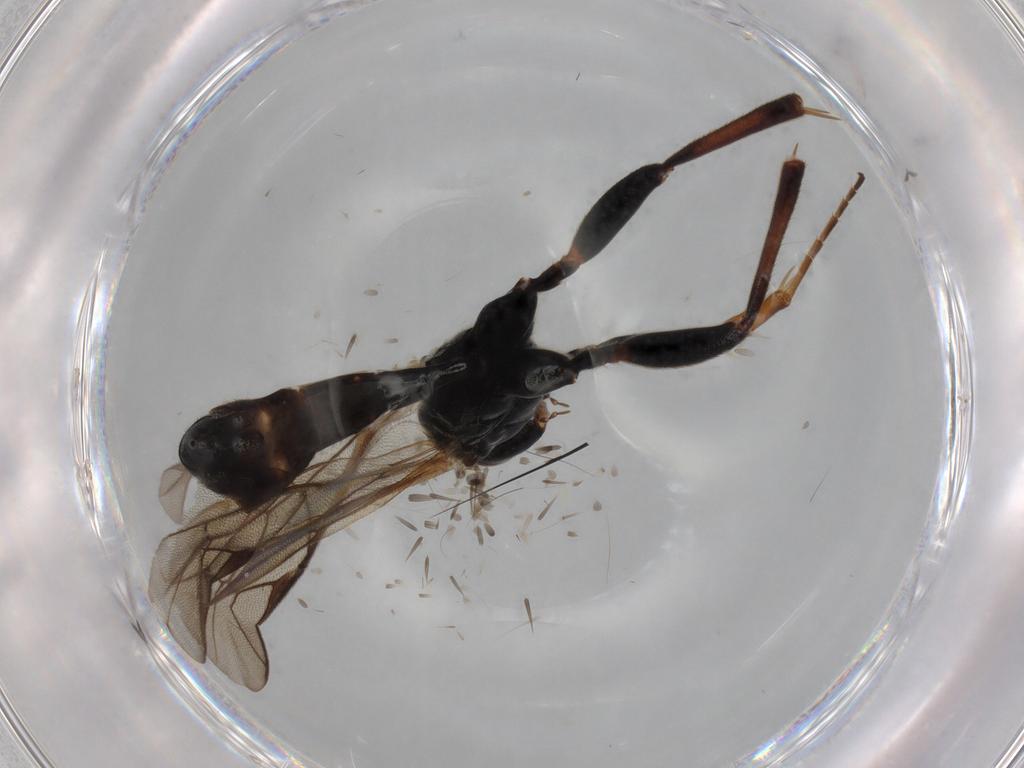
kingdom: Animalia
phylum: Arthropoda
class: Insecta
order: Hymenoptera
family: Ichneumonidae
